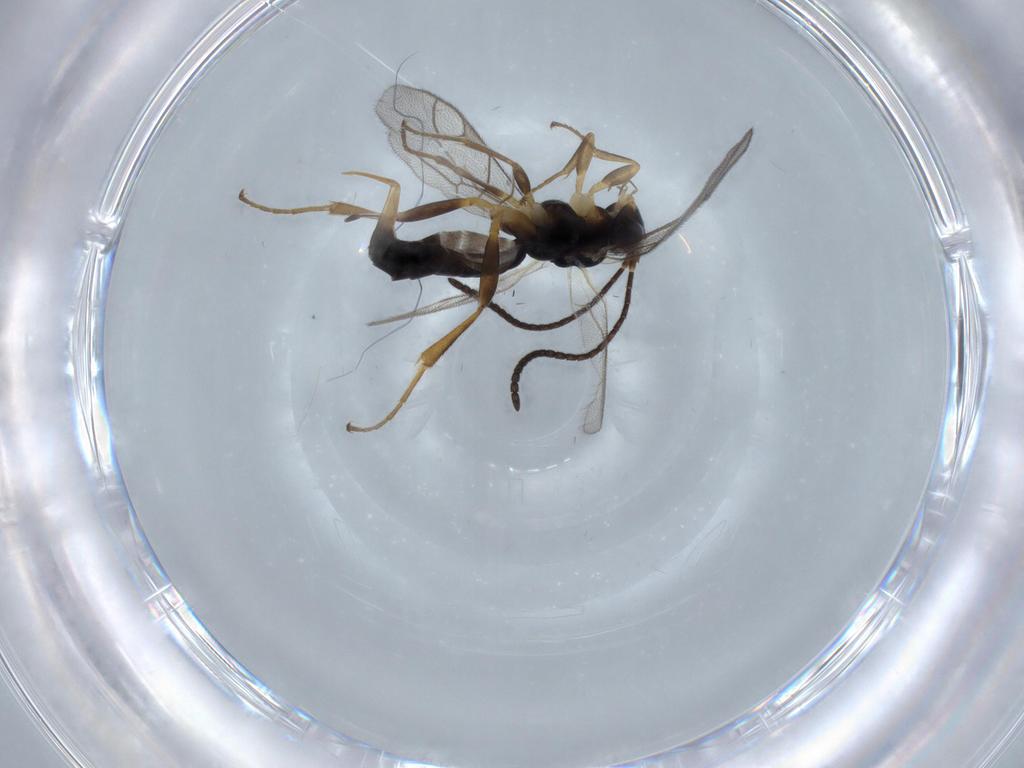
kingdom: Animalia
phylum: Arthropoda
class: Insecta
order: Hymenoptera
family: Ichneumonidae
